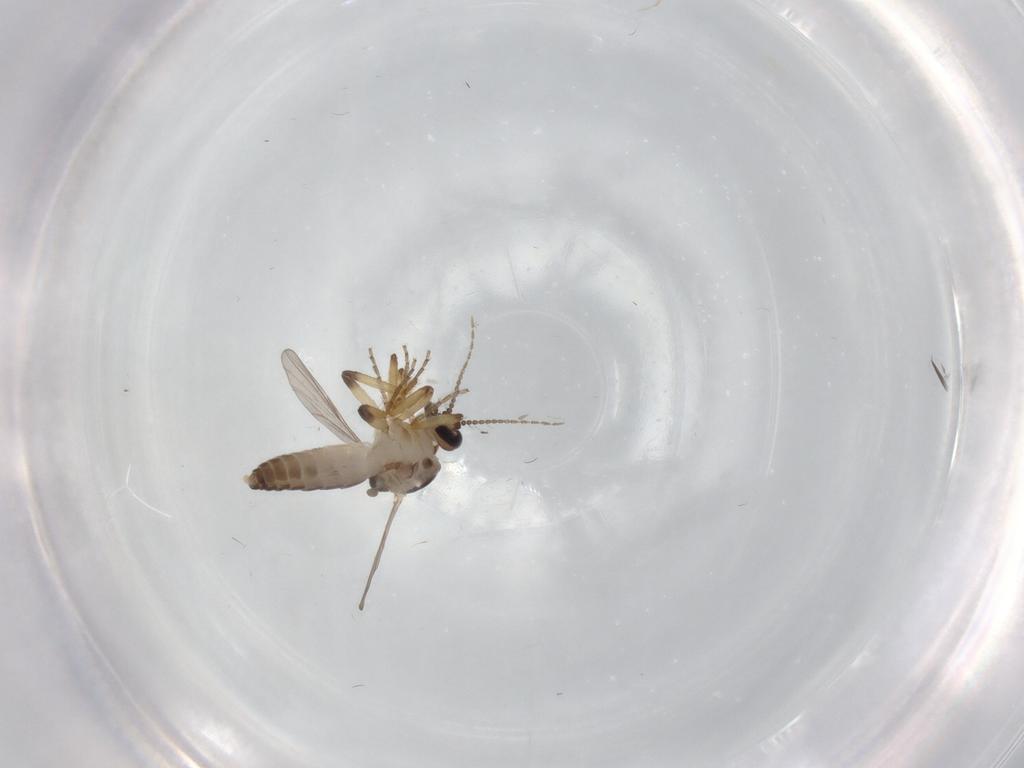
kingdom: Animalia
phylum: Arthropoda
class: Insecta
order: Diptera
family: Ceratopogonidae
